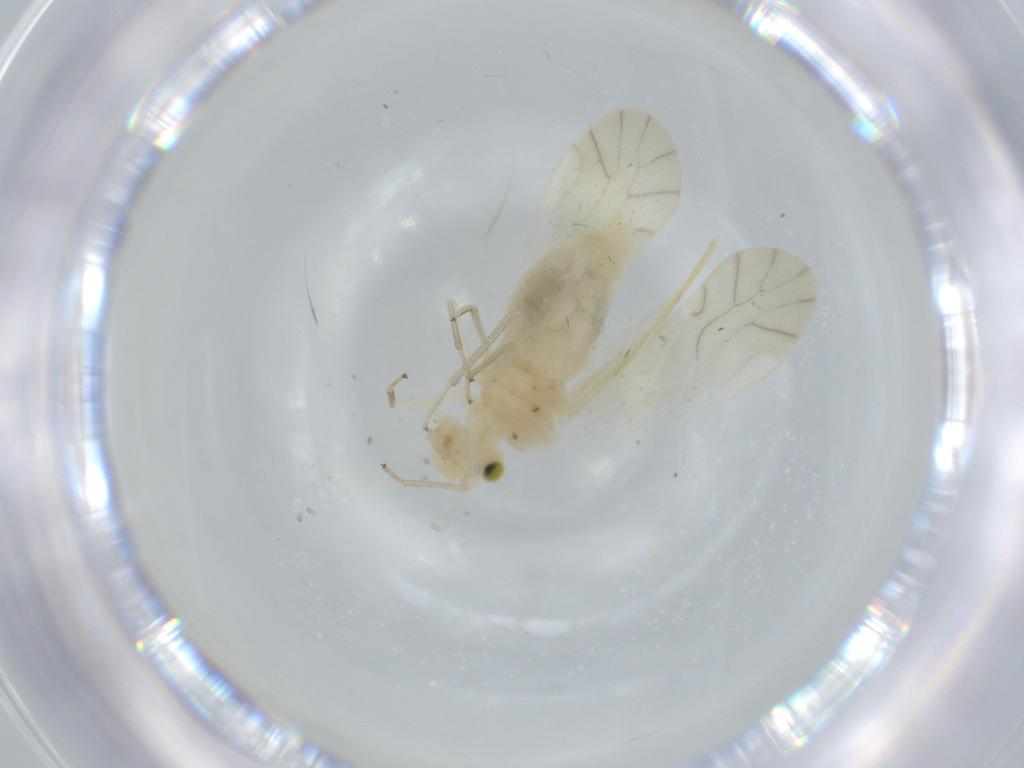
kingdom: Animalia
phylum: Arthropoda
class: Insecta
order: Psocodea
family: Caeciliusidae
